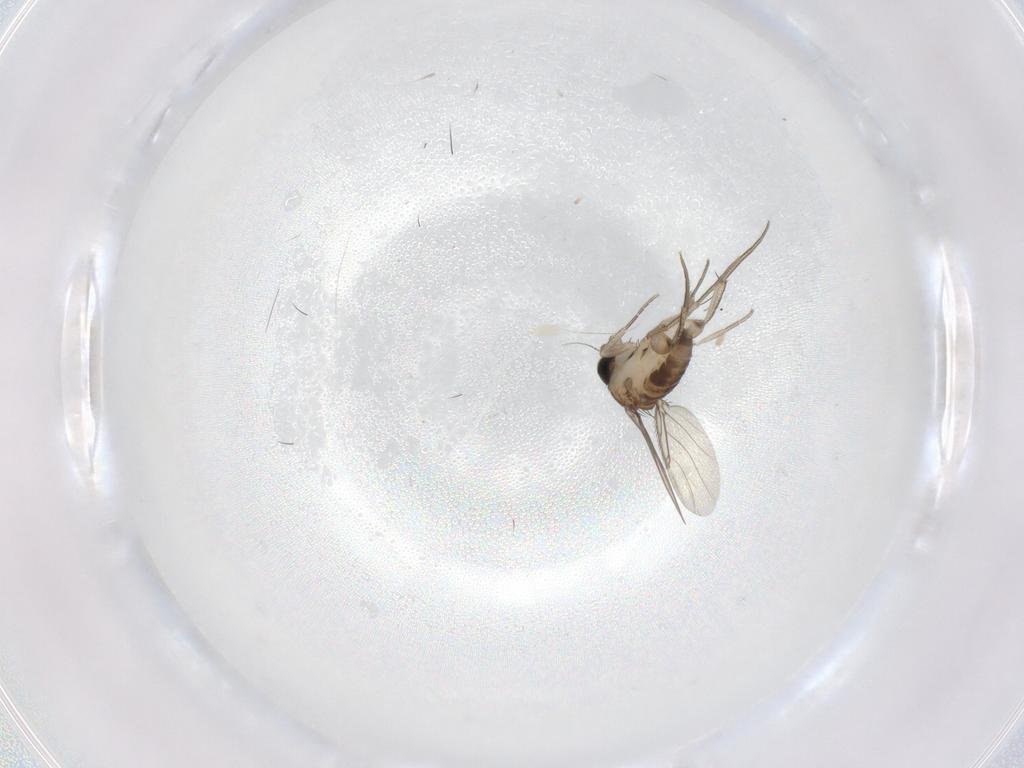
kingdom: Animalia
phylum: Arthropoda
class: Insecta
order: Diptera
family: Phoridae
